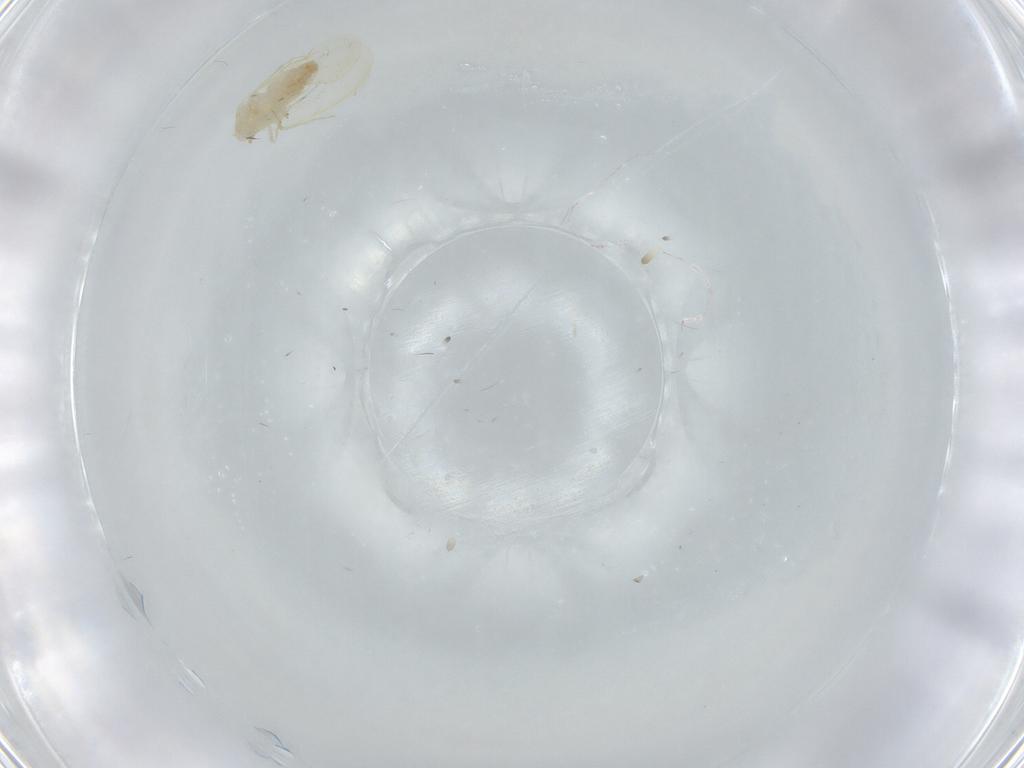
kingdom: Animalia
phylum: Arthropoda
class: Insecta
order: Hemiptera
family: Aleyrodidae
